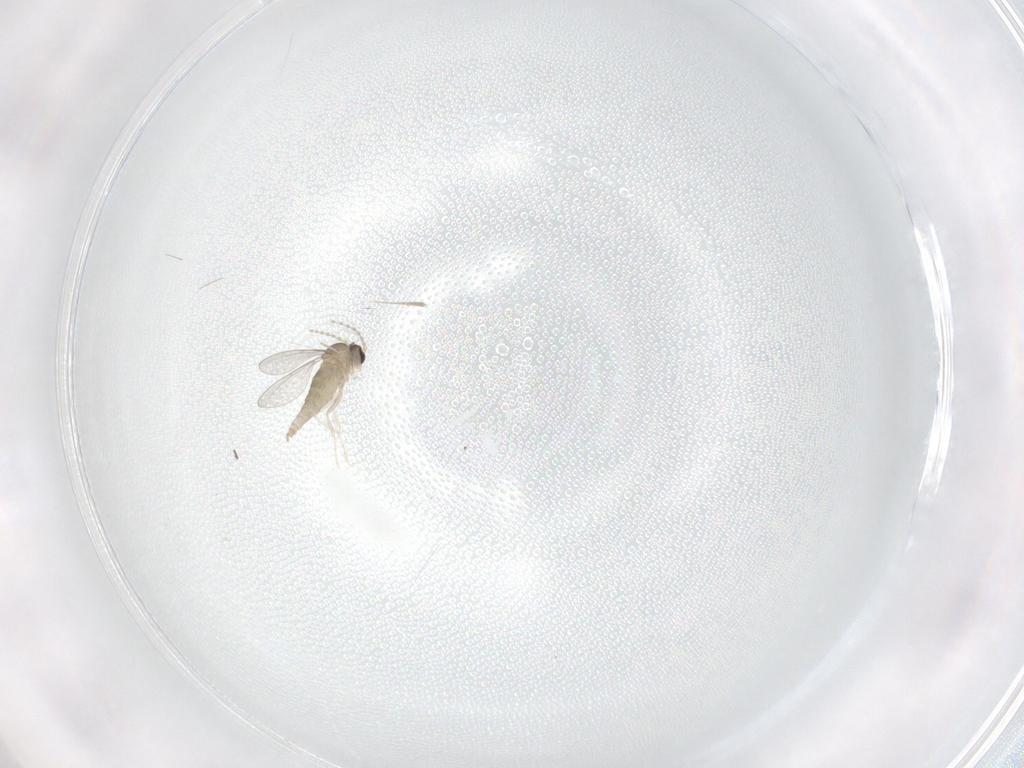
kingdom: Animalia
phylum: Arthropoda
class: Insecta
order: Diptera
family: Cecidomyiidae
